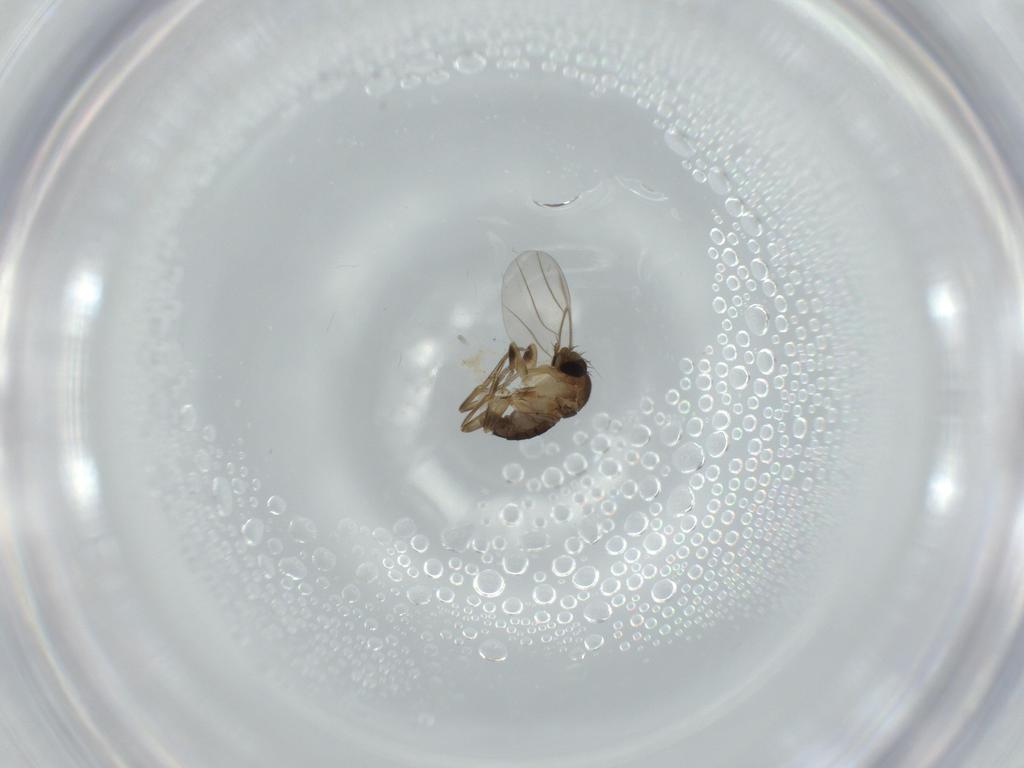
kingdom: Animalia
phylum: Arthropoda
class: Insecta
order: Diptera
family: Phoridae
